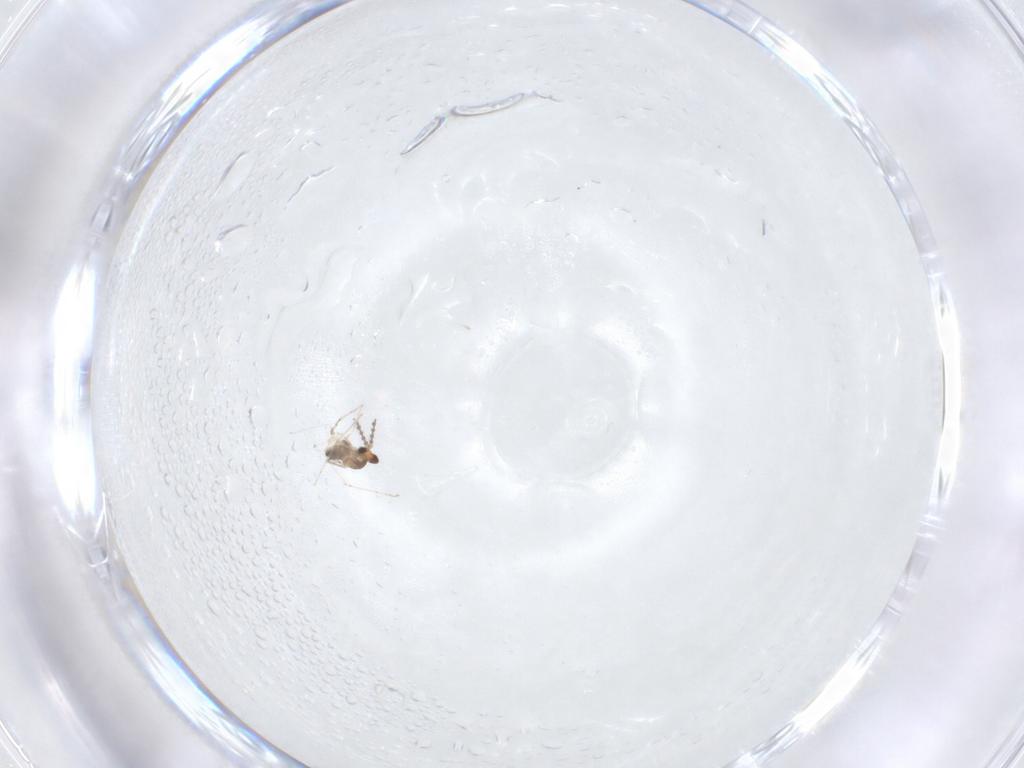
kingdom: Animalia
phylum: Arthropoda
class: Insecta
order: Diptera
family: Cecidomyiidae
